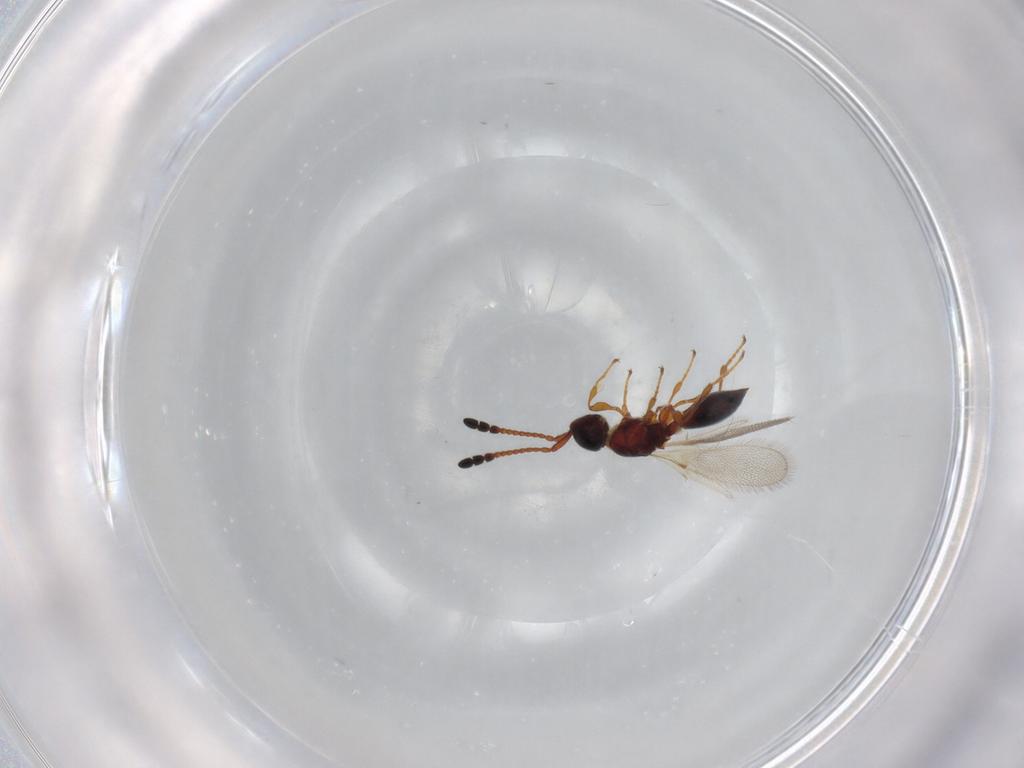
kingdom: Animalia
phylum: Arthropoda
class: Insecta
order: Hymenoptera
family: Diapriidae
